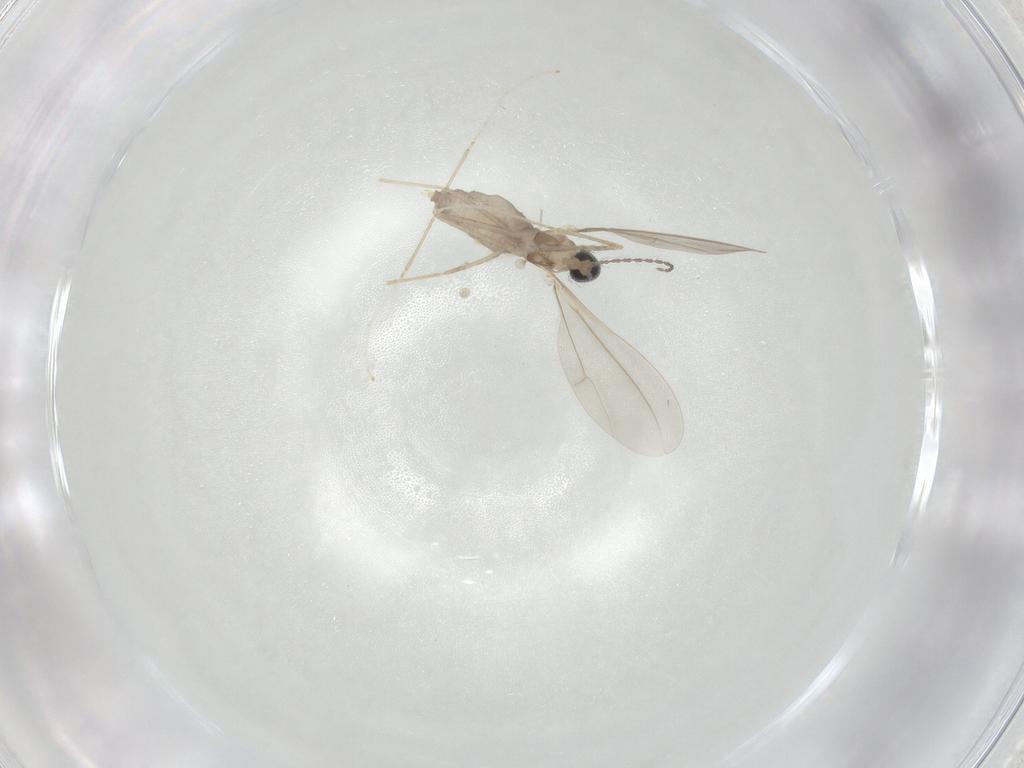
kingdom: Animalia
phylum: Arthropoda
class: Insecta
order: Diptera
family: Cecidomyiidae
